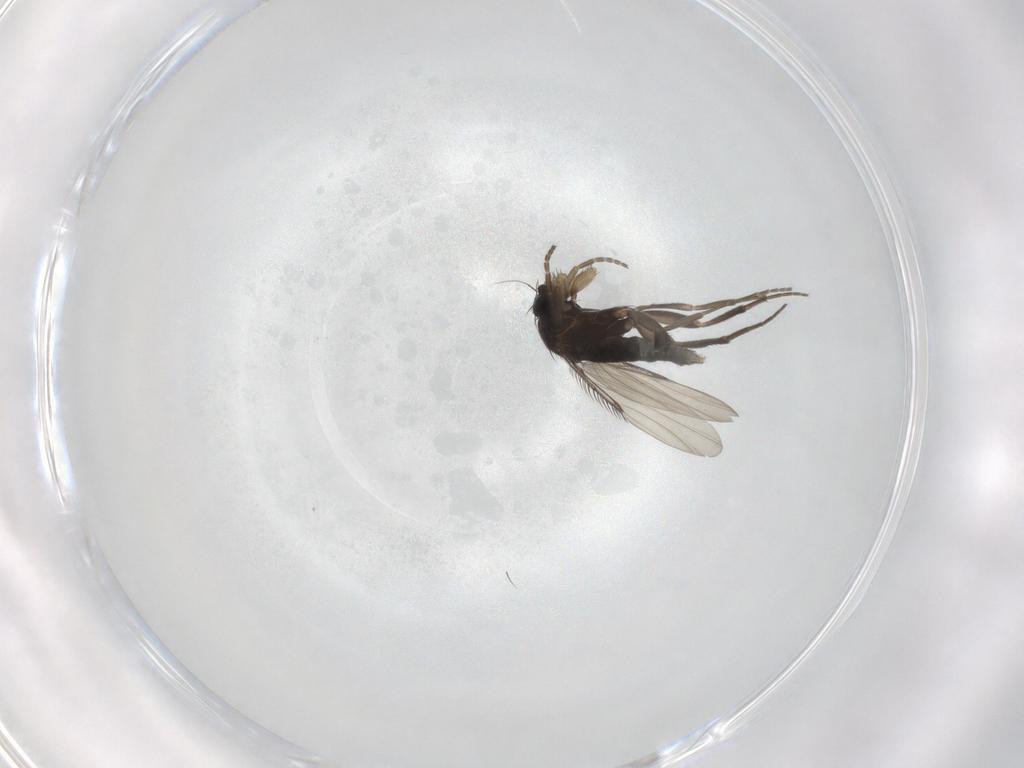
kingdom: Animalia
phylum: Arthropoda
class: Insecta
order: Diptera
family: Phoridae
